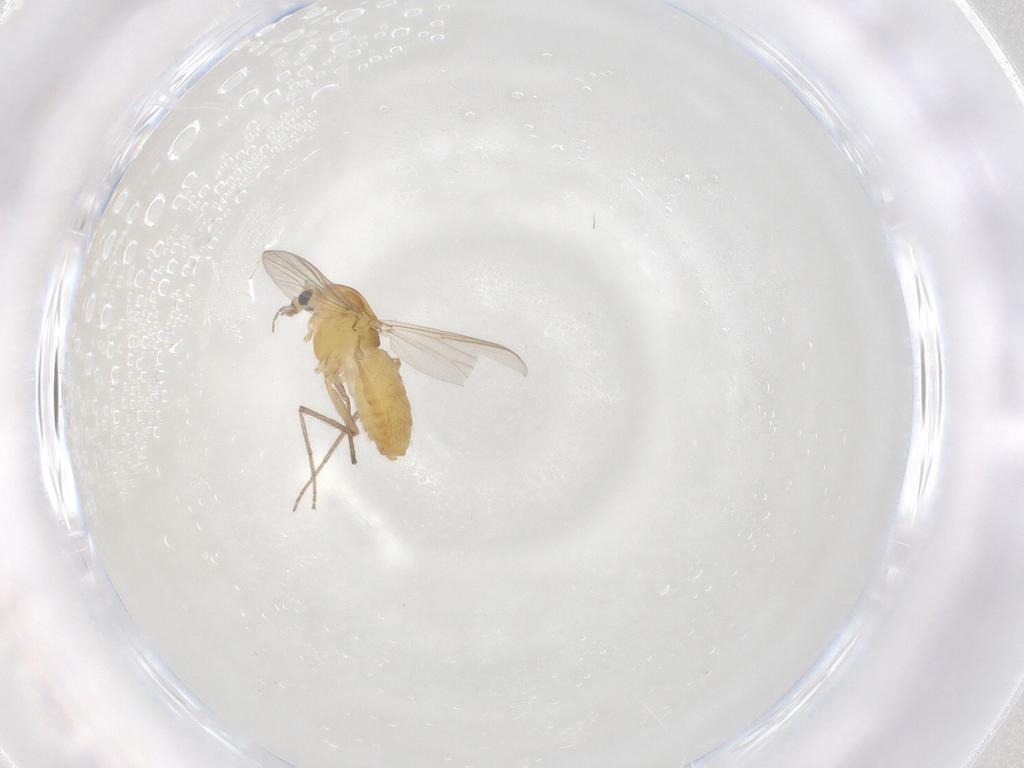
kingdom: Animalia
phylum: Arthropoda
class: Insecta
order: Diptera
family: Chironomidae
